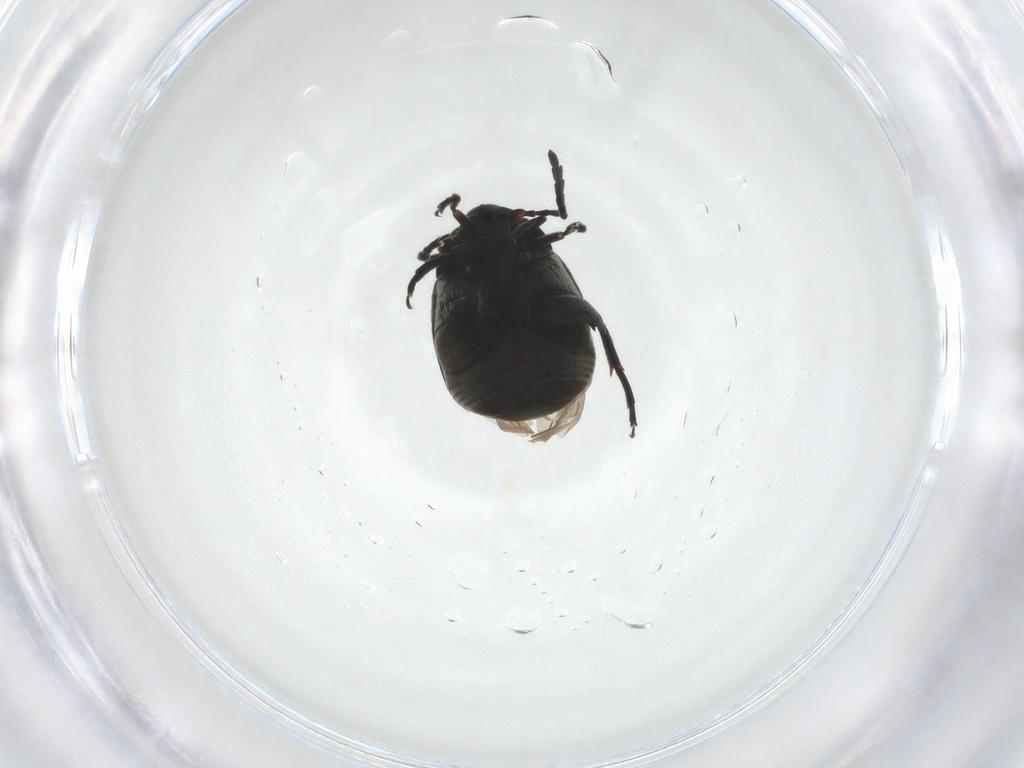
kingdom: Animalia
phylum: Arthropoda
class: Insecta
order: Coleoptera
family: Chrysomelidae
